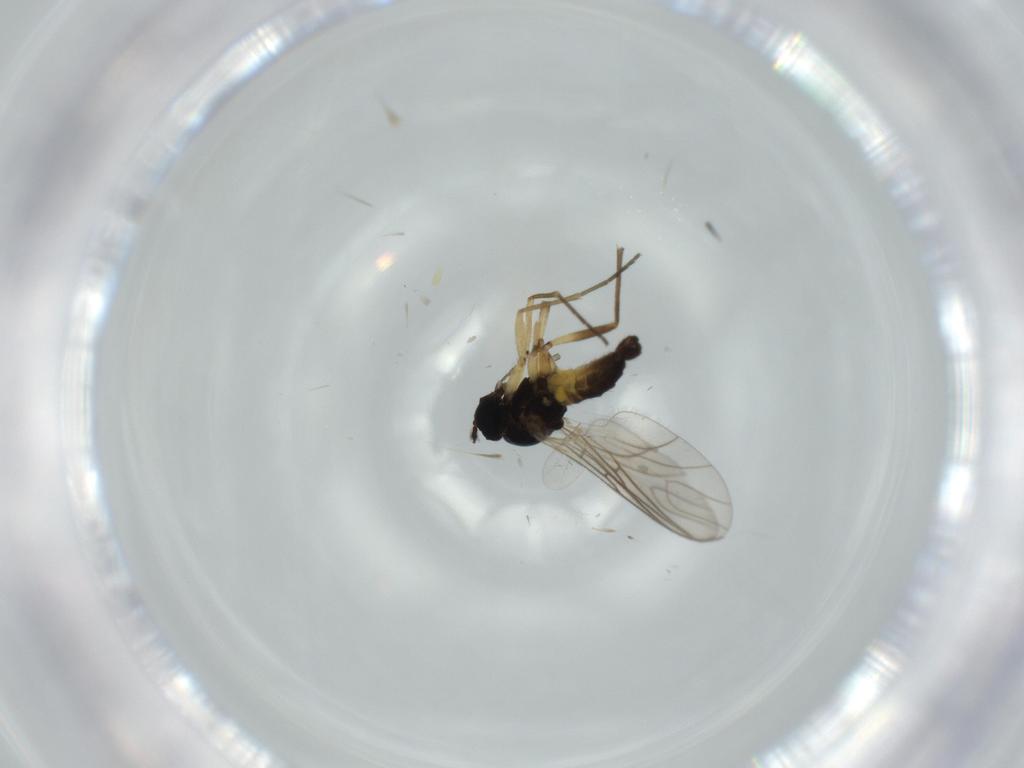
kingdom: Animalia
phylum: Arthropoda
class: Insecta
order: Diptera
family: Sciaridae
